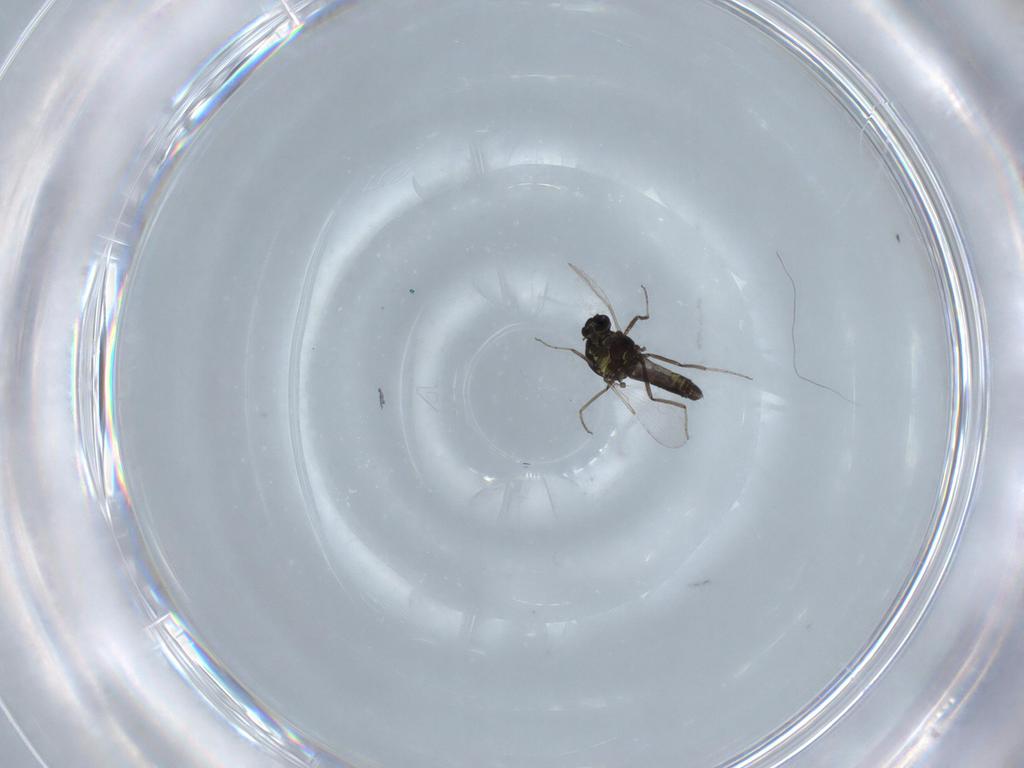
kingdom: Animalia
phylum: Arthropoda
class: Insecta
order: Diptera
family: Ceratopogonidae
